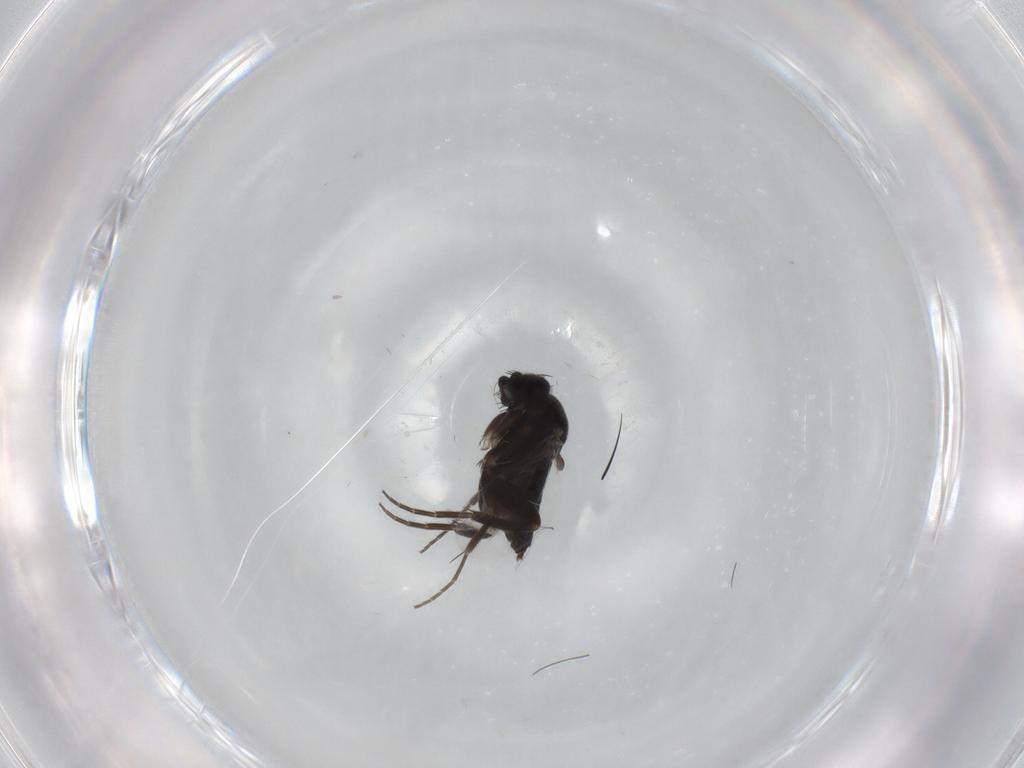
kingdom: Animalia
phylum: Arthropoda
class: Insecta
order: Diptera
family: Phoridae
